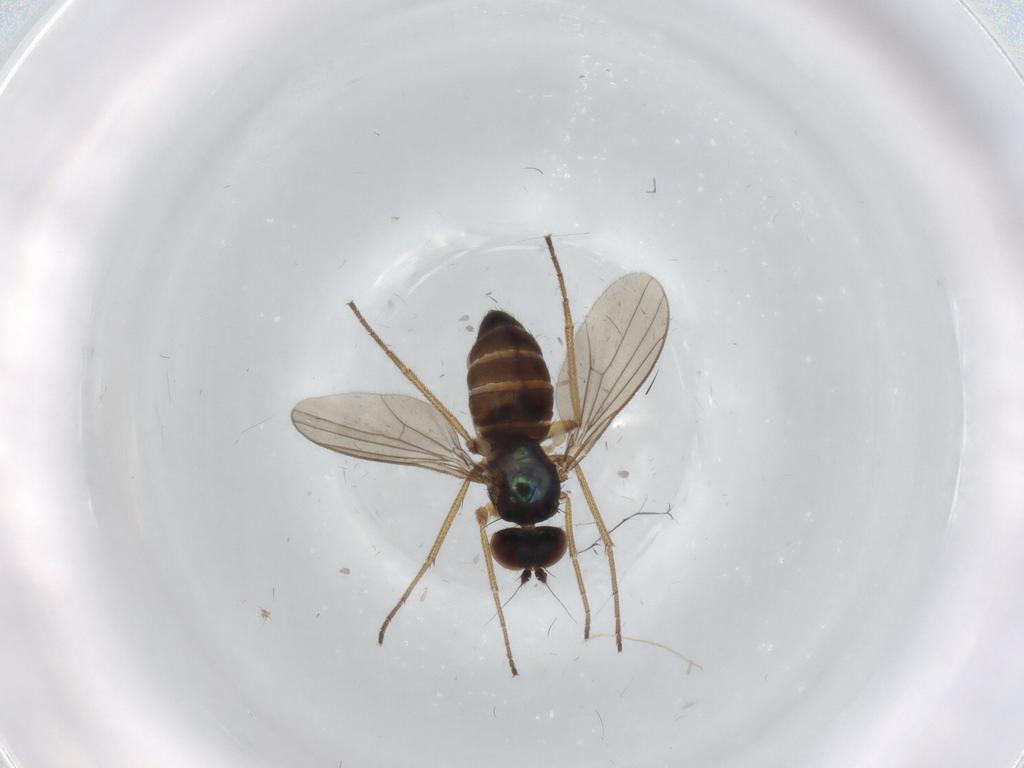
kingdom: Animalia
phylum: Arthropoda
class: Insecta
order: Diptera
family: Dolichopodidae
